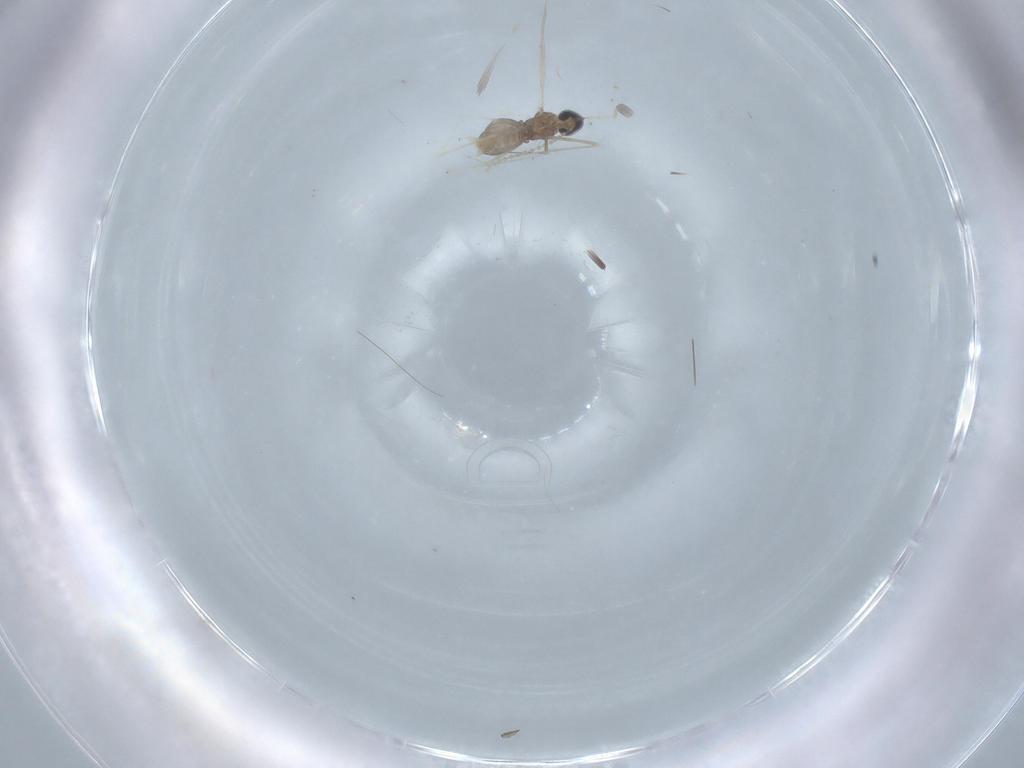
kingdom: Animalia
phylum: Arthropoda
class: Insecta
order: Diptera
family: Cecidomyiidae
